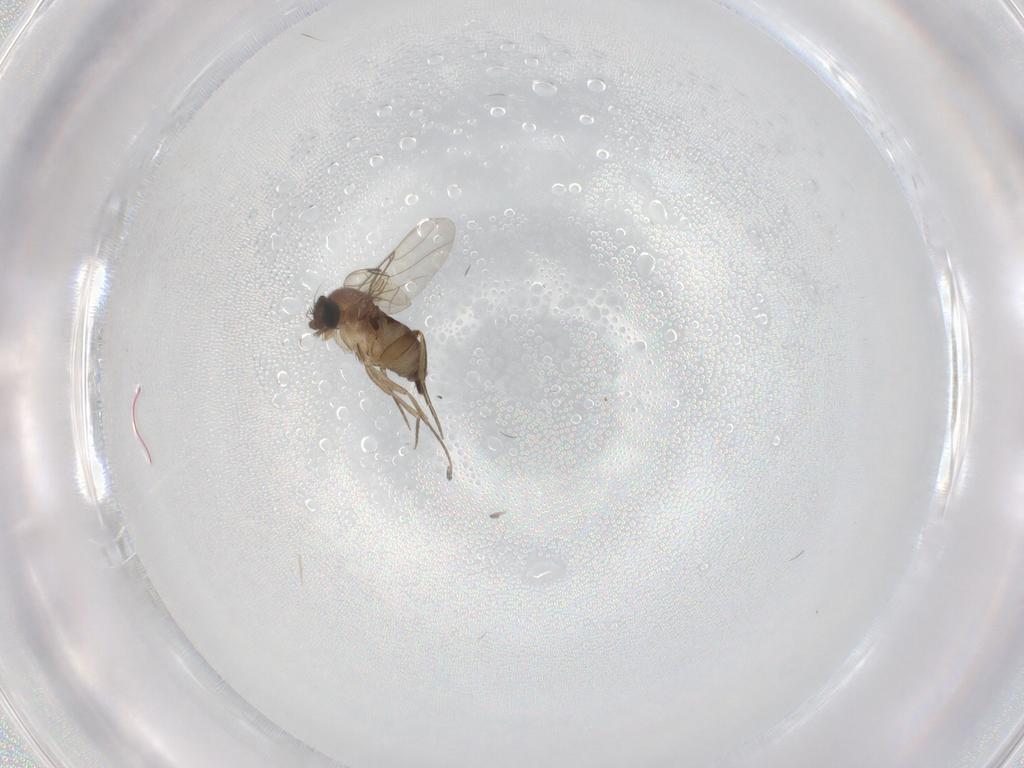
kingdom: Animalia
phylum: Arthropoda
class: Insecta
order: Diptera
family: Phoridae
